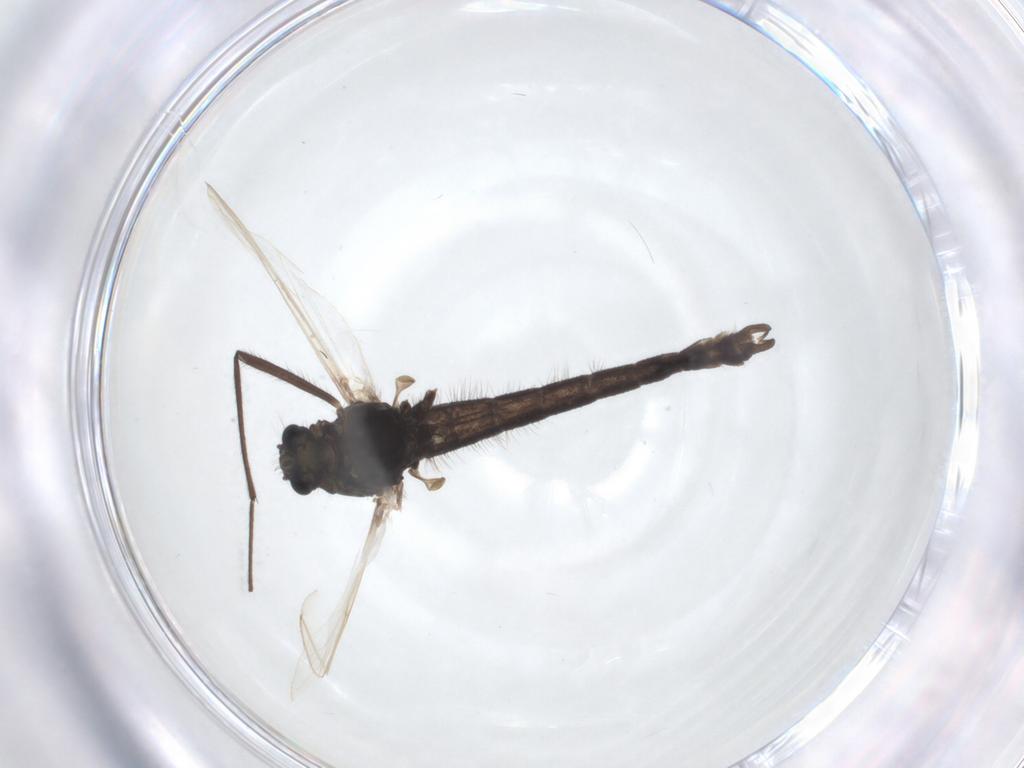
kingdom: Animalia
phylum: Arthropoda
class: Insecta
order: Diptera
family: Chironomidae
